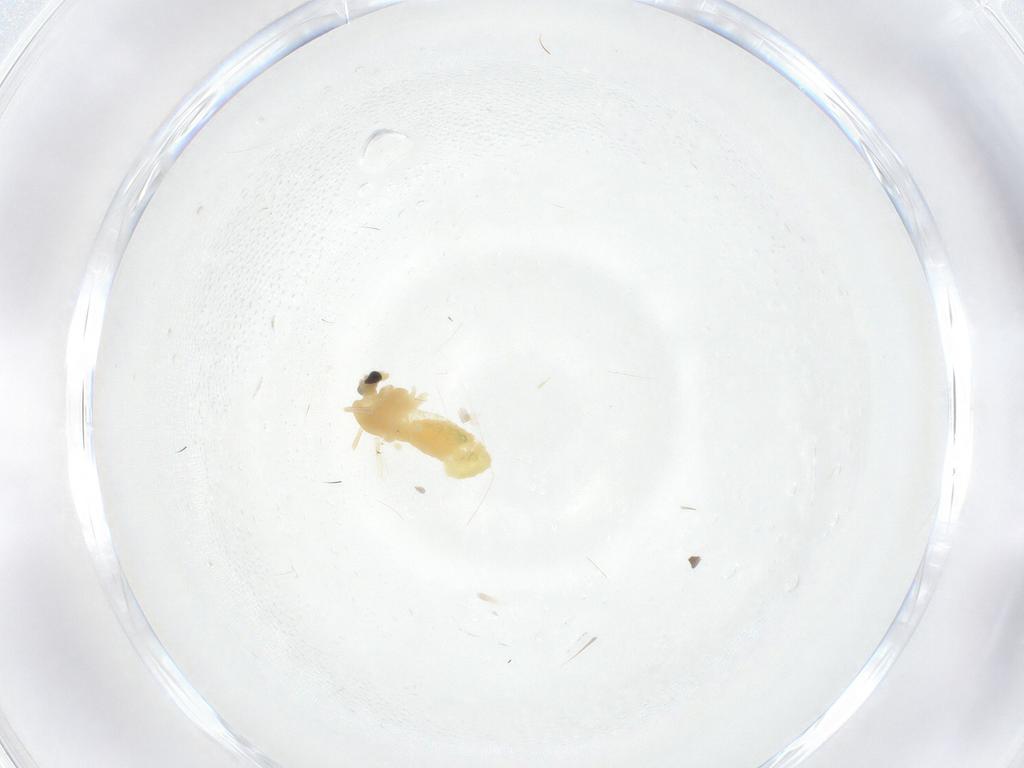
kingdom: Animalia
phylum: Arthropoda
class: Insecta
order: Diptera
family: Chironomidae
